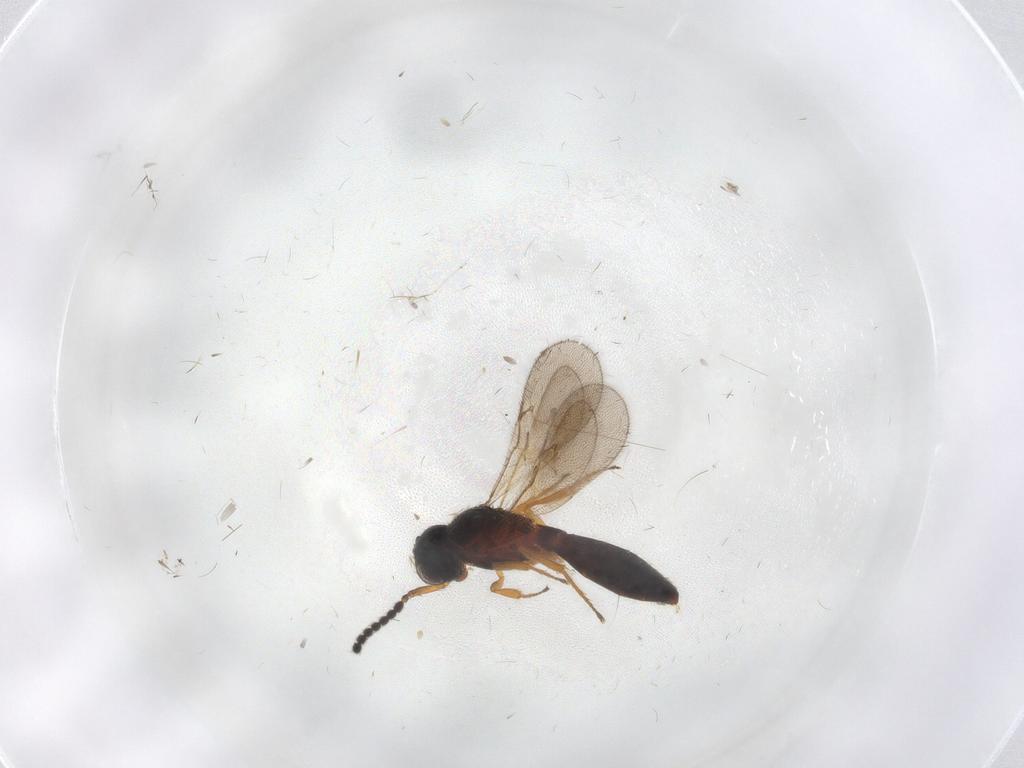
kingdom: Animalia
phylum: Arthropoda
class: Insecta
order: Hymenoptera
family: Scelionidae
